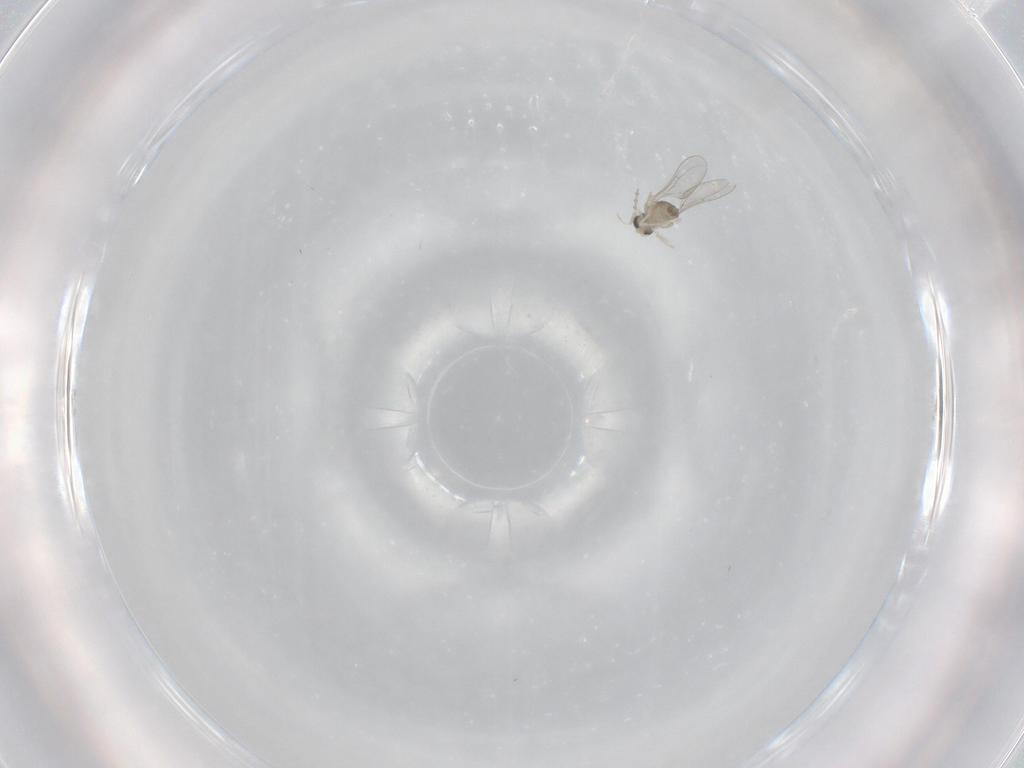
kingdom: Animalia
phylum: Arthropoda
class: Insecta
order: Diptera
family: Cecidomyiidae
